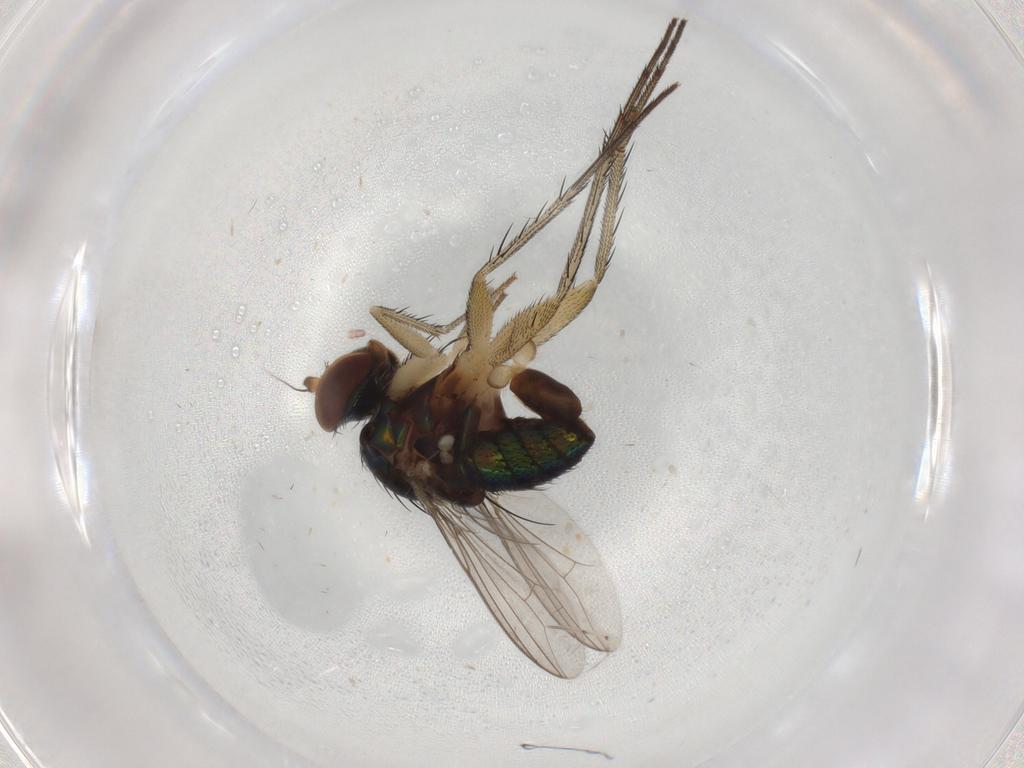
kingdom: Animalia
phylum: Arthropoda
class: Insecta
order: Diptera
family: Dolichopodidae
